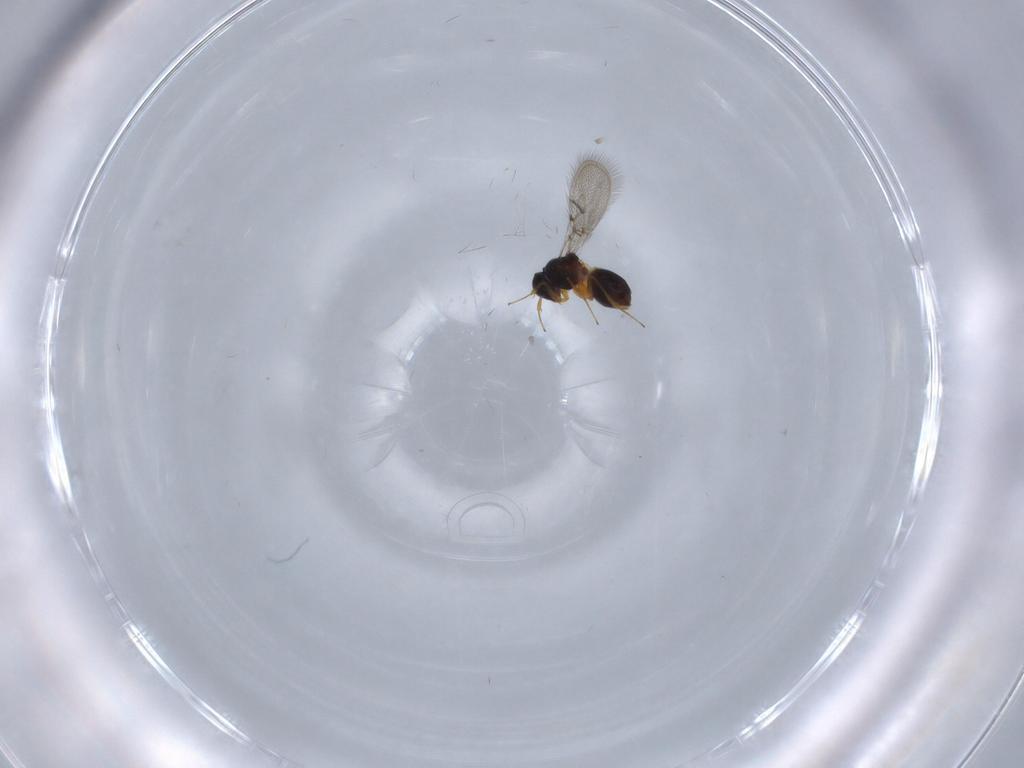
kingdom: Animalia
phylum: Arthropoda
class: Insecta
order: Hymenoptera
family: Figitidae
